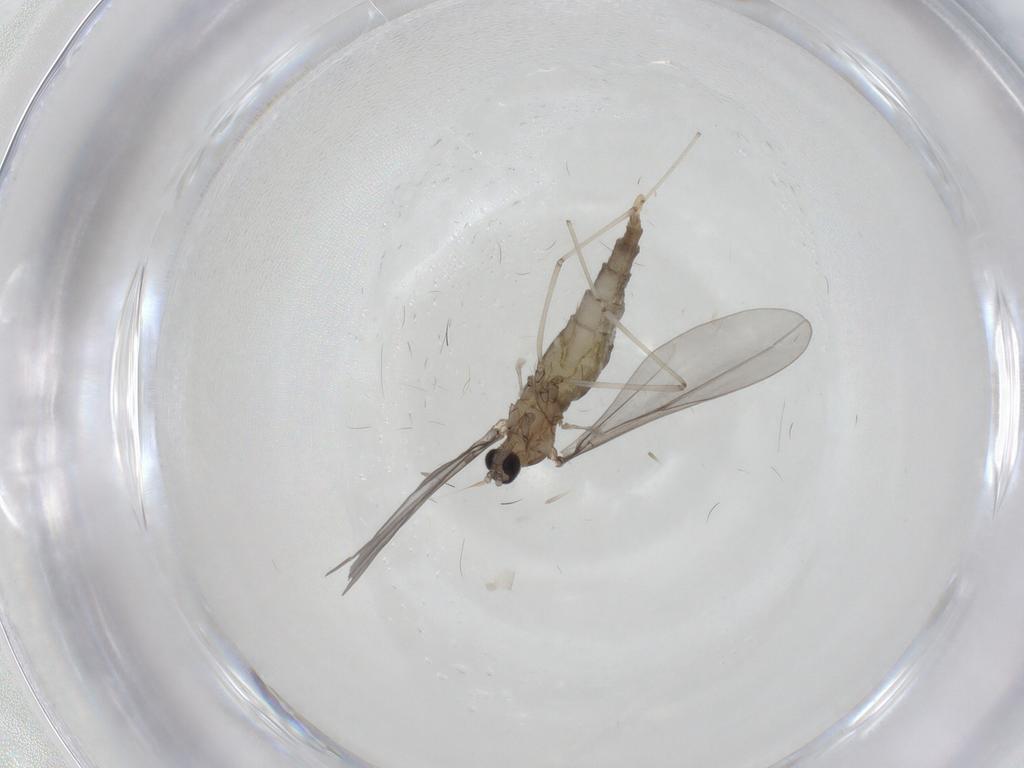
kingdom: Animalia
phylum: Arthropoda
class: Insecta
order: Diptera
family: Cecidomyiidae
